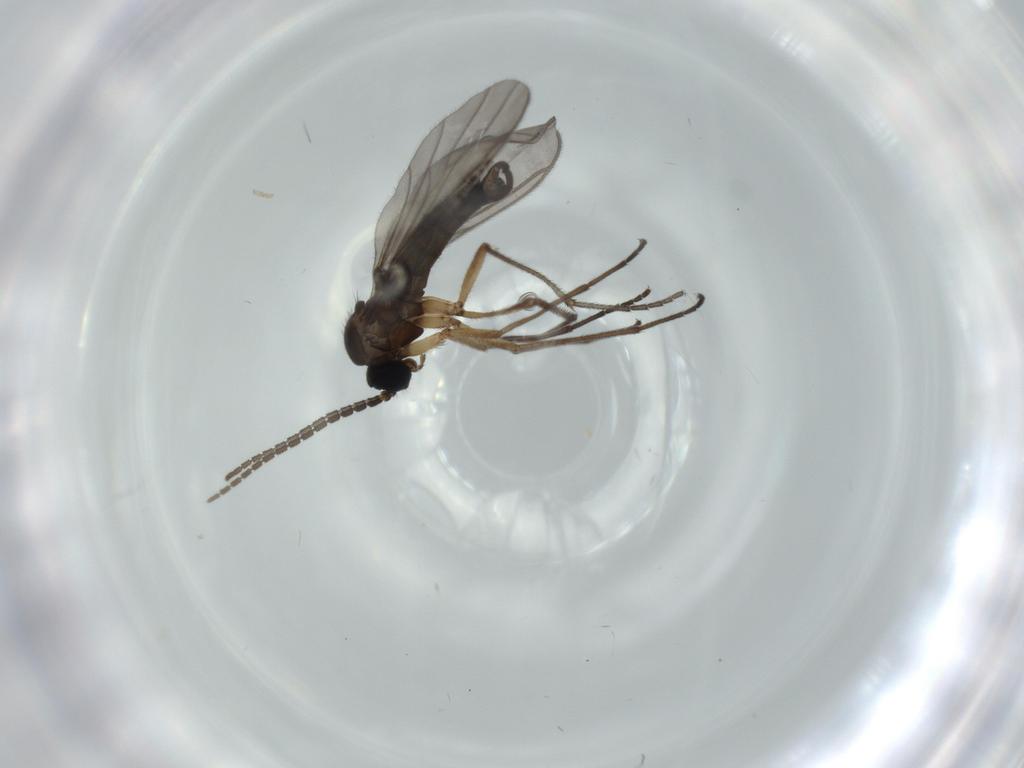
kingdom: Animalia
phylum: Arthropoda
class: Insecta
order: Diptera
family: Sciaridae
